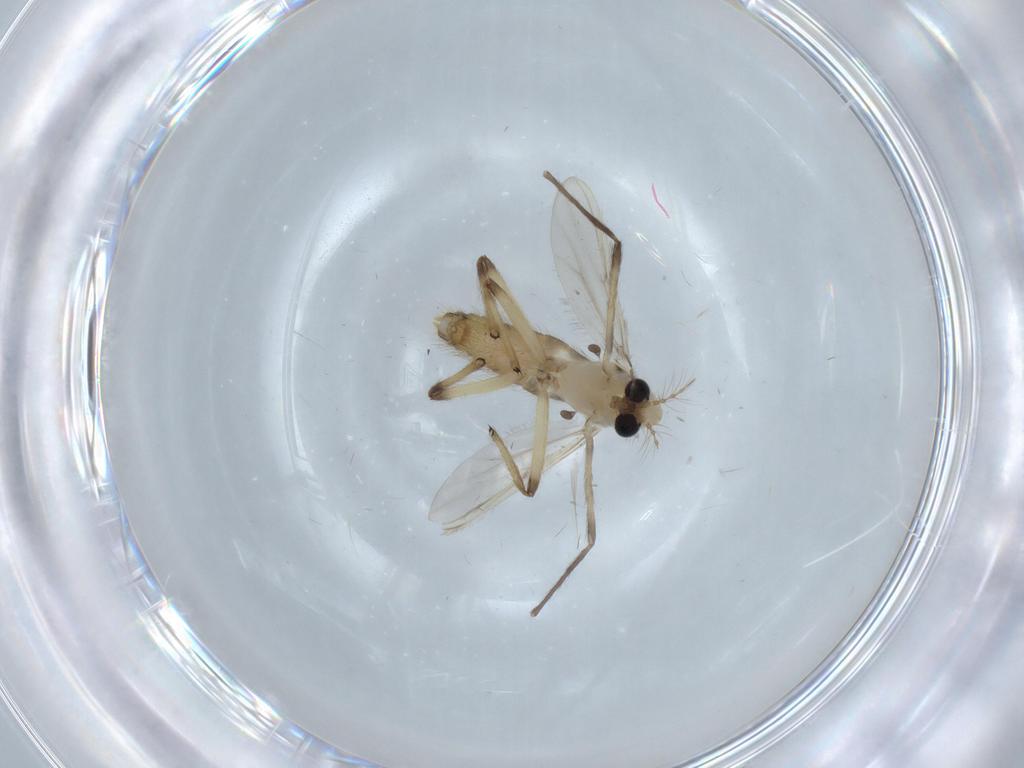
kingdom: Animalia
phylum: Arthropoda
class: Insecta
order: Diptera
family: Chironomidae
